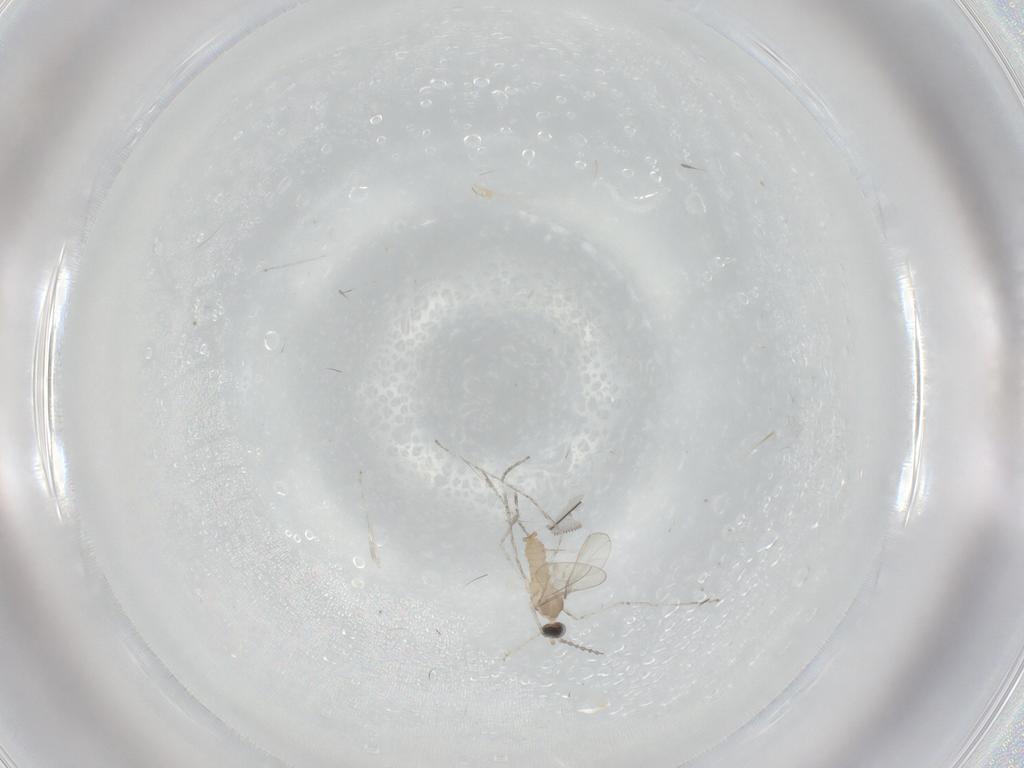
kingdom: Animalia
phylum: Arthropoda
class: Insecta
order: Diptera
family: Cecidomyiidae
